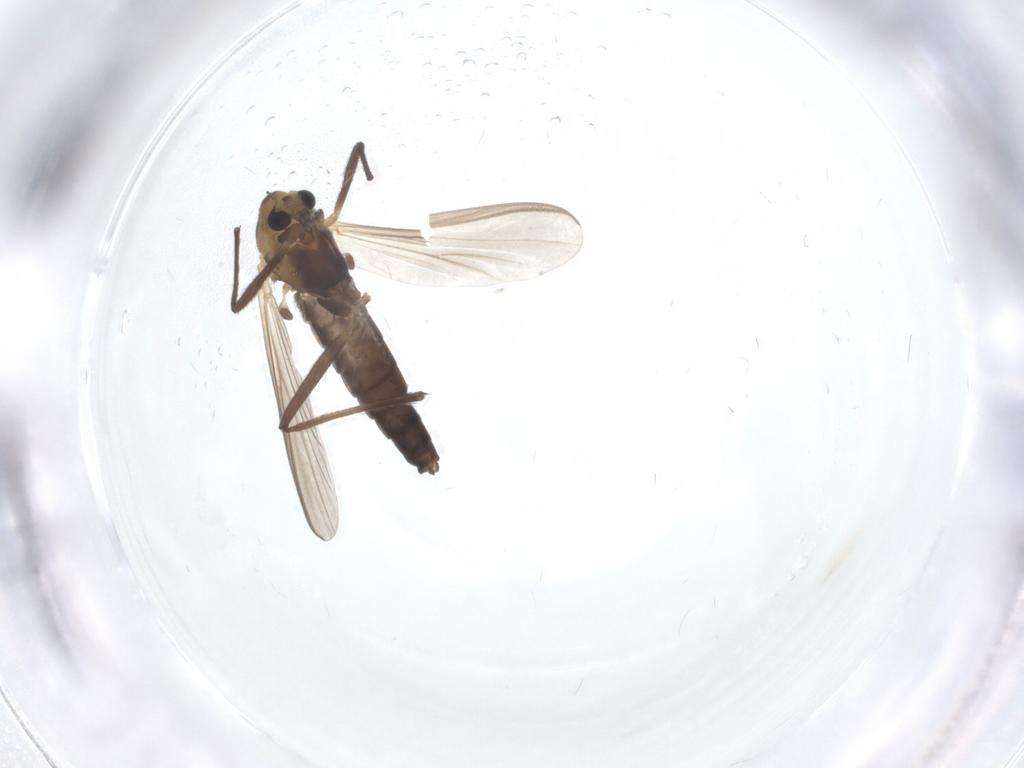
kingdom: Animalia
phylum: Arthropoda
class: Insecta
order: Diptera
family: Chironomidae
